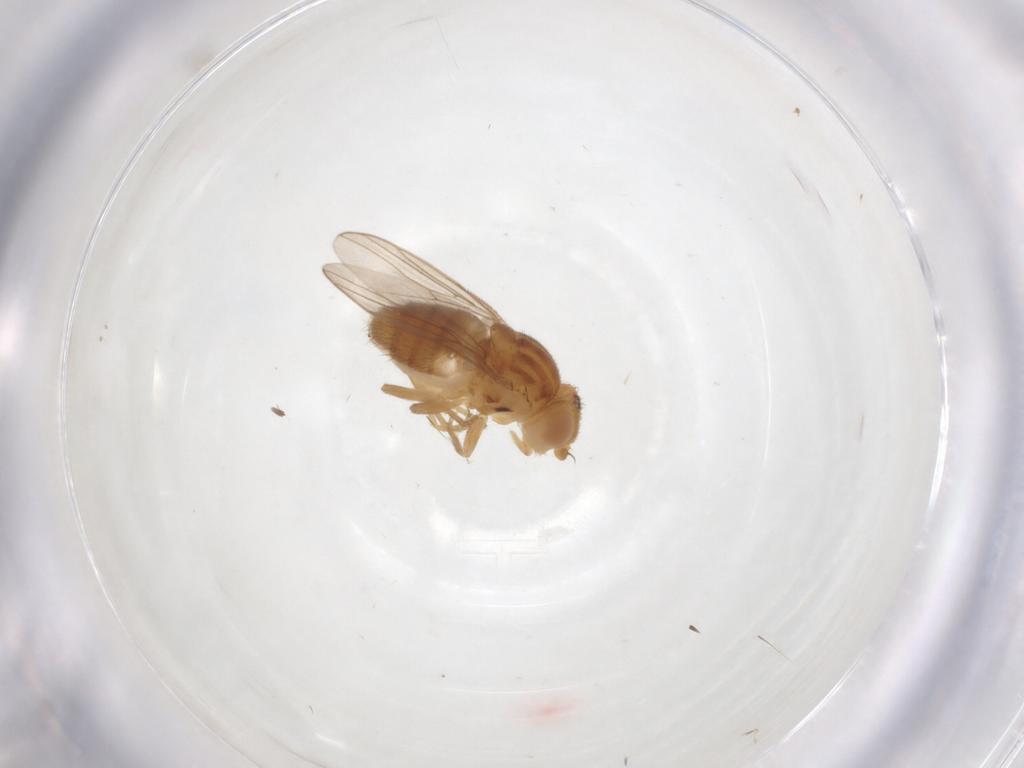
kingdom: Animalia
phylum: Arthropoda
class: Insecta
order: Diptera
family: Chloropidae
